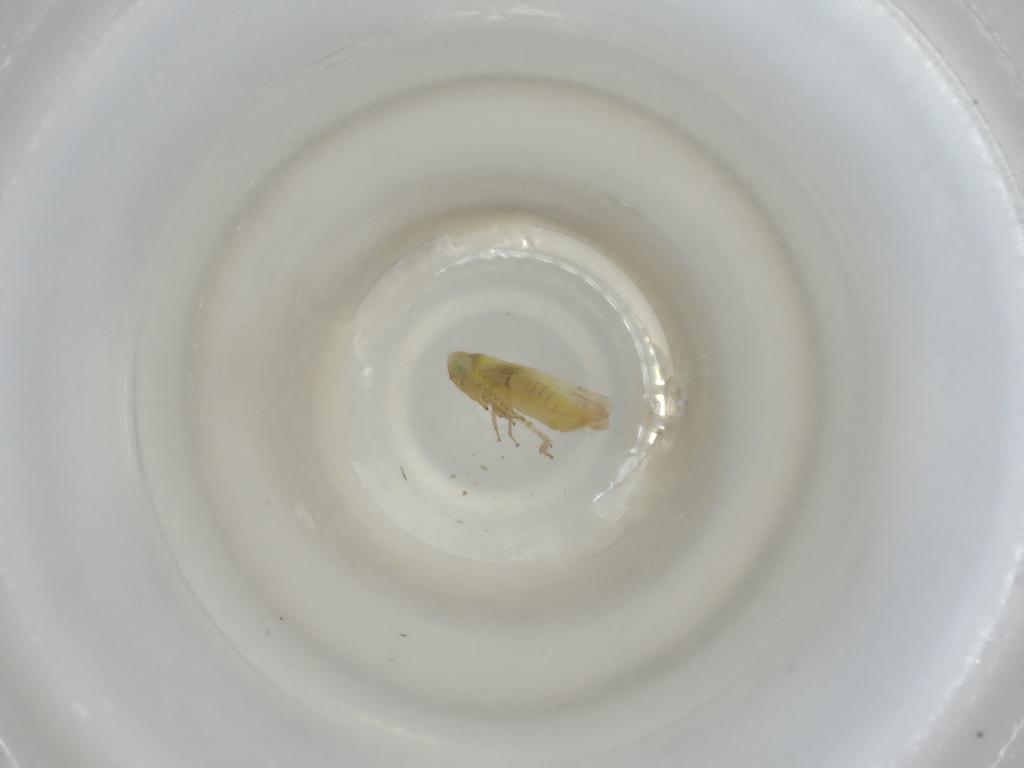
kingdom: Animalia
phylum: Arthropoda
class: Insecta
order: Hemiptera
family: Cicadellidae
